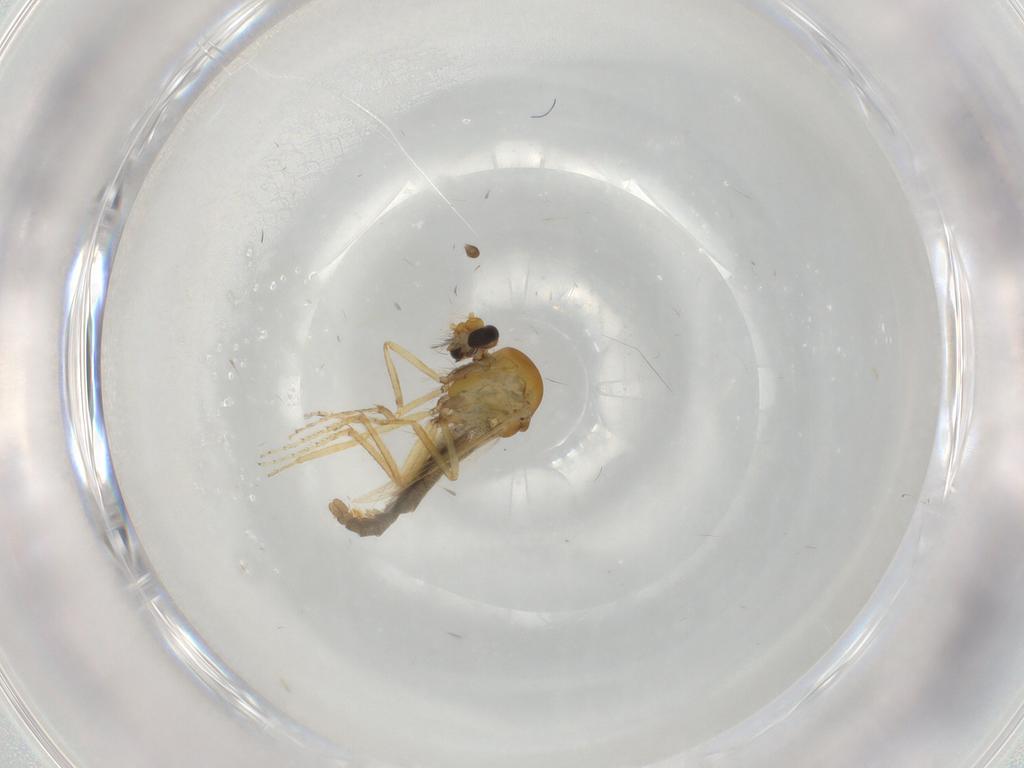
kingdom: Animalia
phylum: Arthropoda
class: Insecta
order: Diptera
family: Ceratopogonidae
